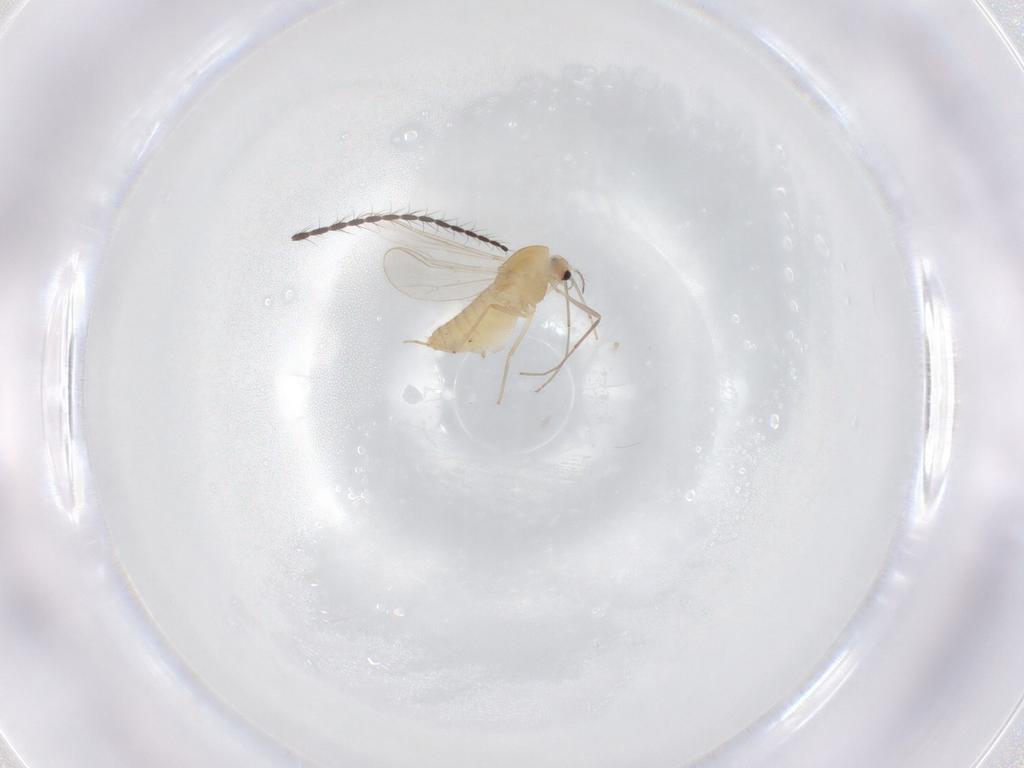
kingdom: Animalia
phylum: Arthropoda
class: Insecta
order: Diptera
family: Chironomidae
